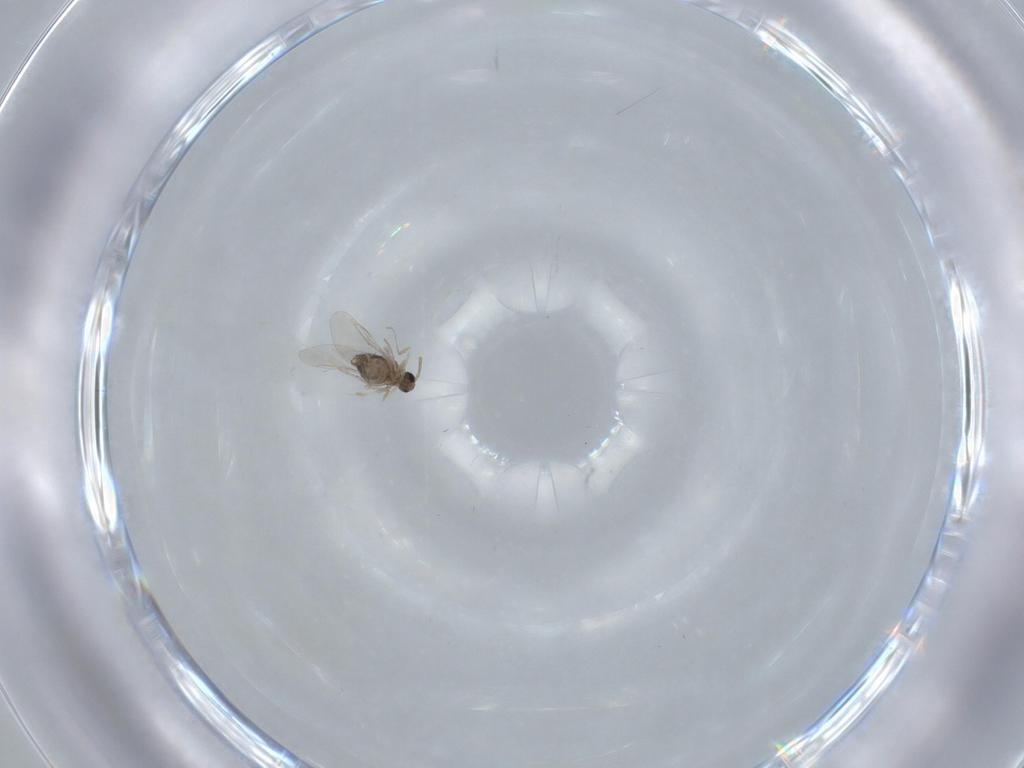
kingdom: Animalia
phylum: Arthropoda
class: Insecta
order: Diptera
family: Cecidomyiidae
